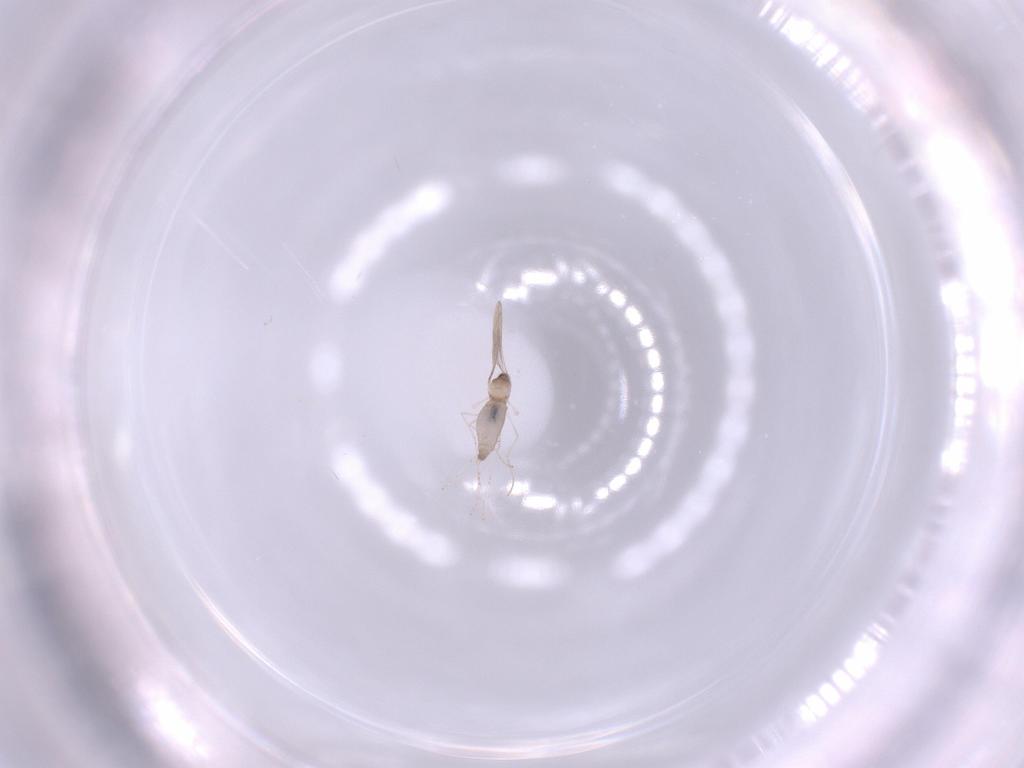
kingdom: Animalia
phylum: Arthropoda
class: Insecta
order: Diptera
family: Cecidomyiidae
